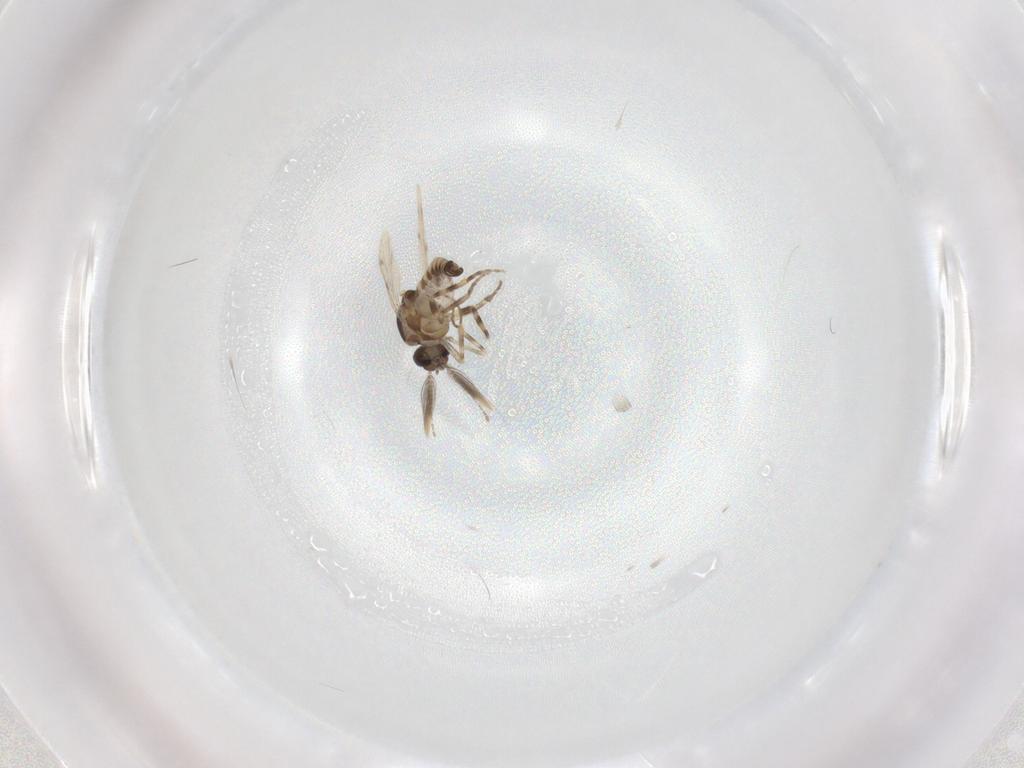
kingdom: Animalia
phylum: Arthropoda
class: Insecta
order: Diptera
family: Ceratopogonidae
